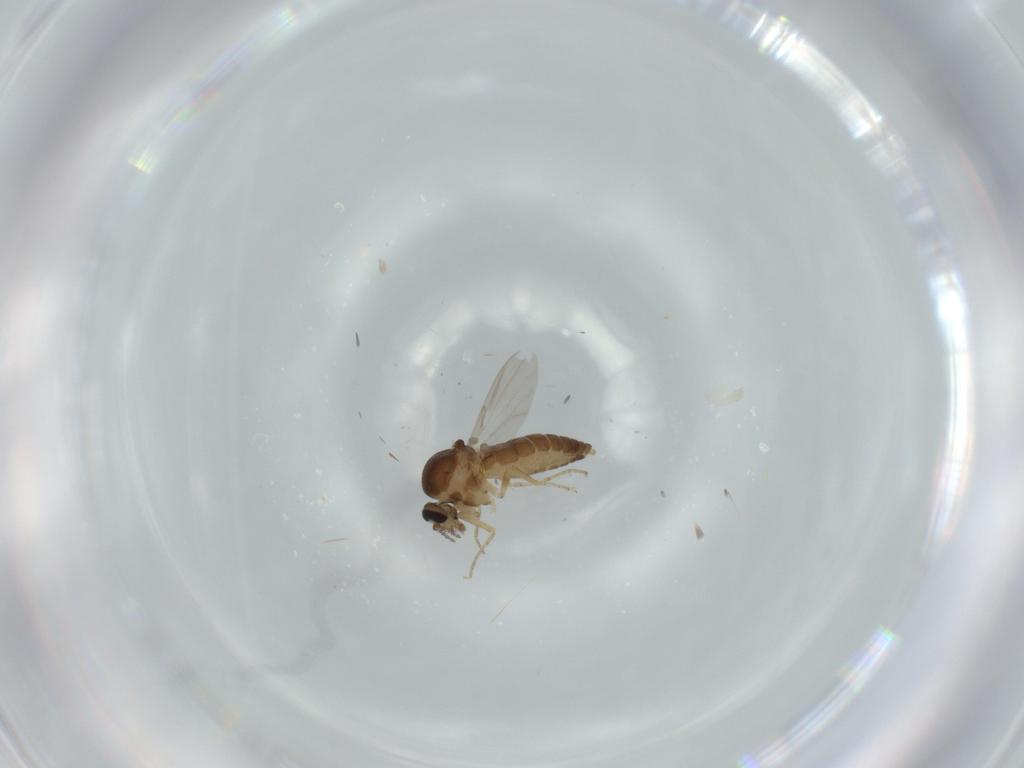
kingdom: Animalia
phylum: Arthropoda
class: Insecta
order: Diptera
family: Ceratopogonidae
